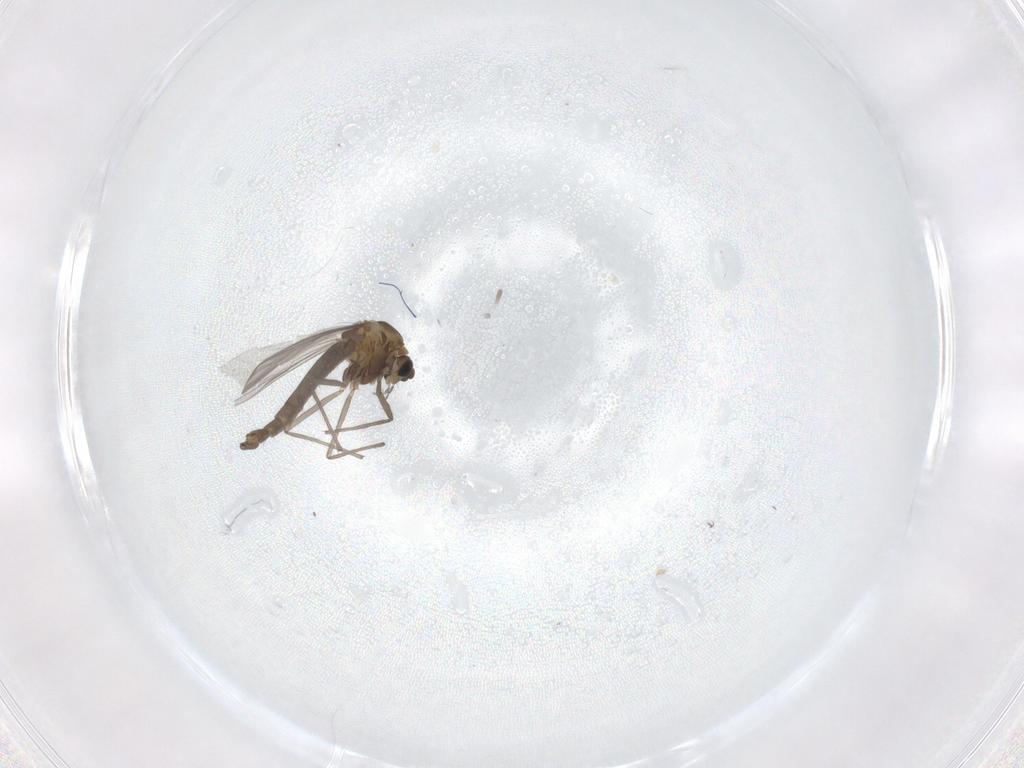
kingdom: Animalia
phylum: Arthropoda
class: Insecta
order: Diptera
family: Chironomidae
